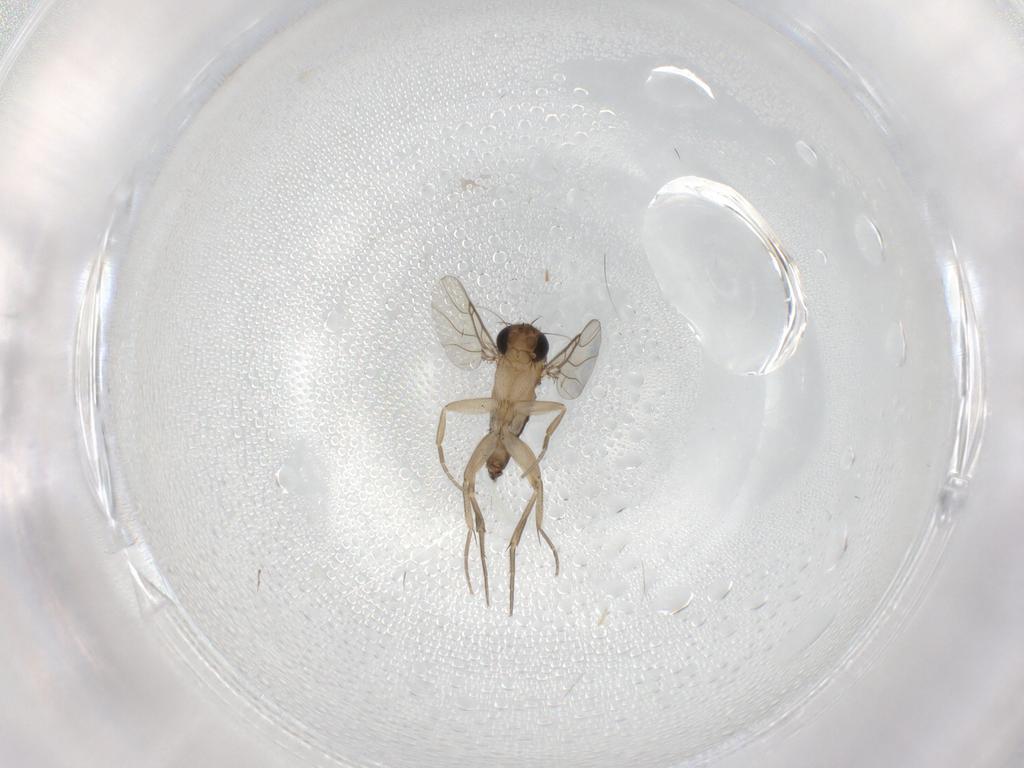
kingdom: Animalia
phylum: Arthropoda
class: Insecta
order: Diptera
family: Phoridae
